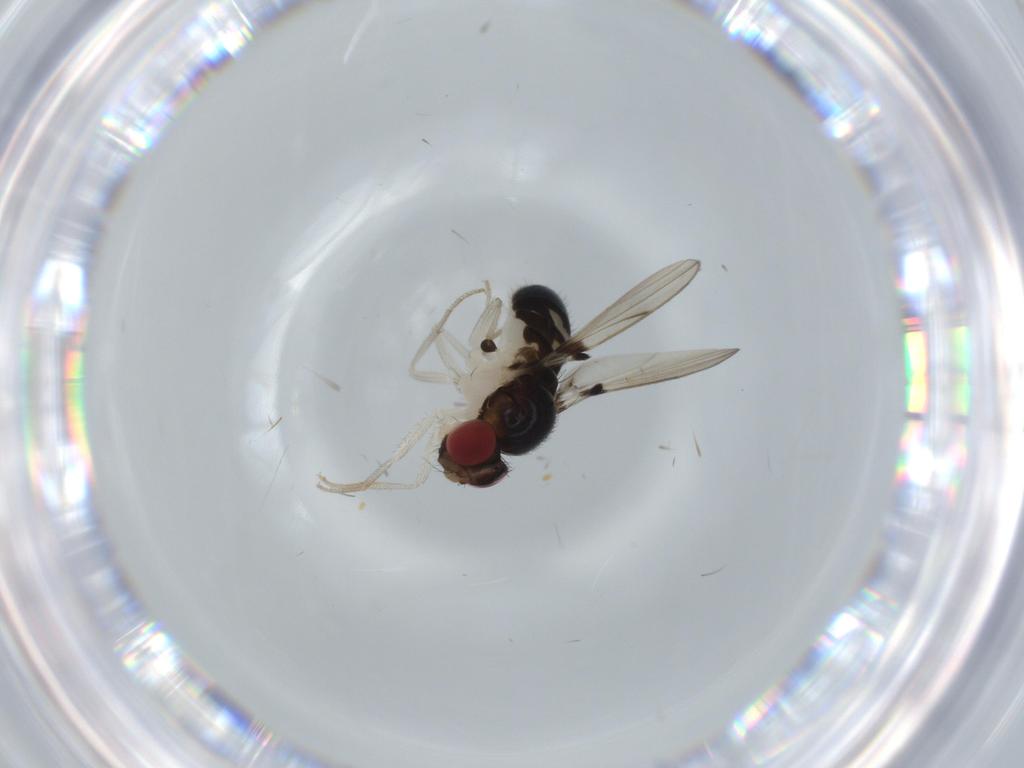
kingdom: Animalia
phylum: Arthropoda
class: Insecta
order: Diptera
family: Drosophilidae
